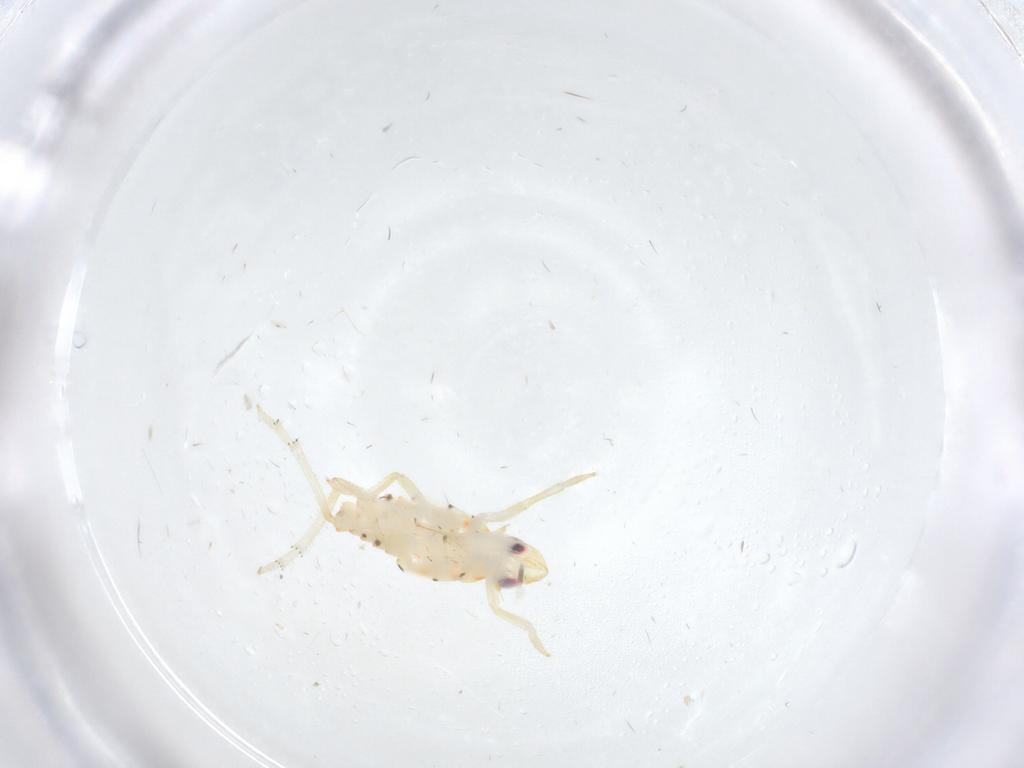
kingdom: Animalia
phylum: Arthropoda
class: Insecta
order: Hemiptera
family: Tropiduchidae
